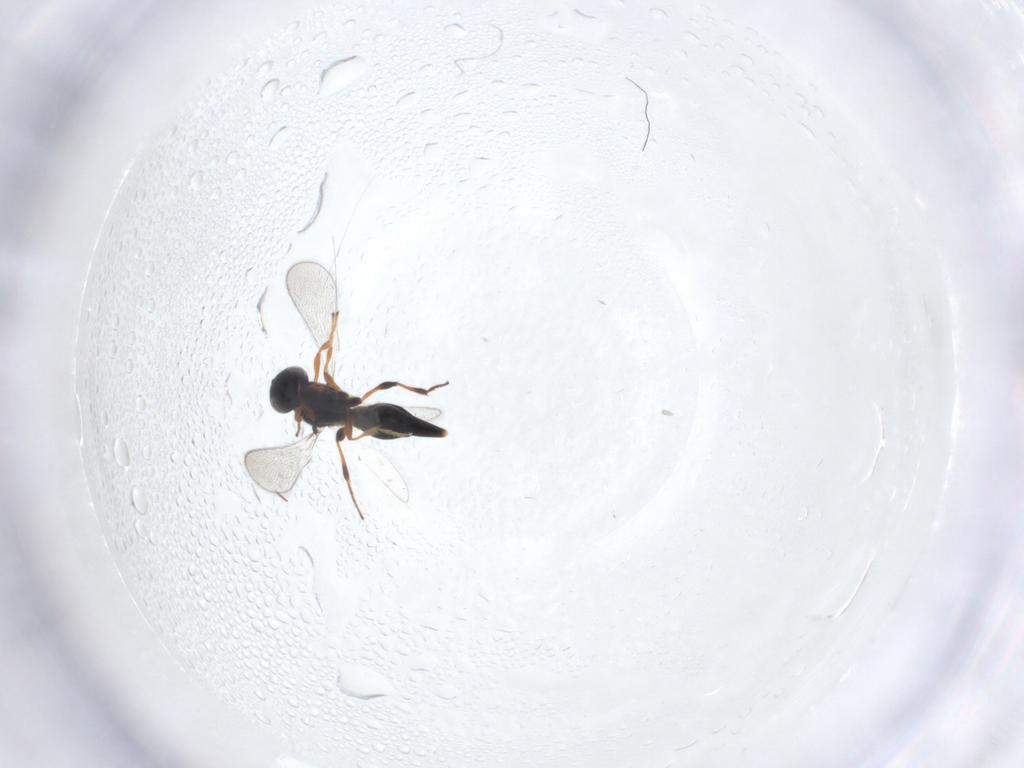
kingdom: Animalia
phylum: Arthropoda
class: Insecta
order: Hymenoptera
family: Platygastridae
